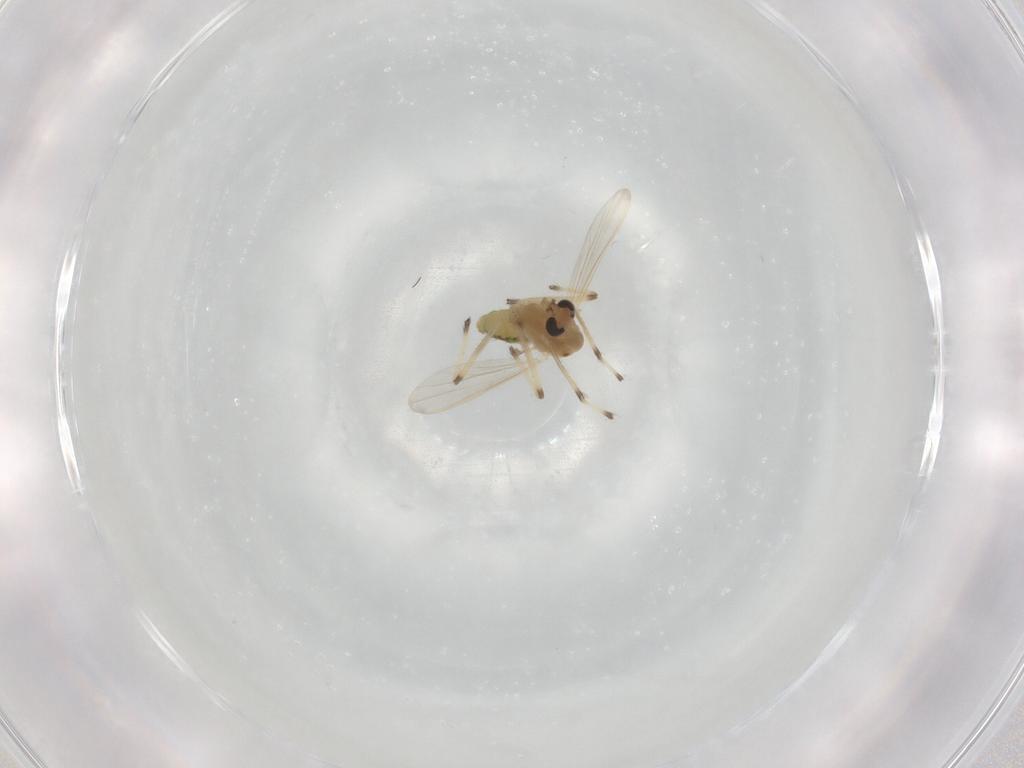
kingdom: Animalia
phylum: Arthropoda
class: Insecta
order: Diptera
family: Chironomidae
